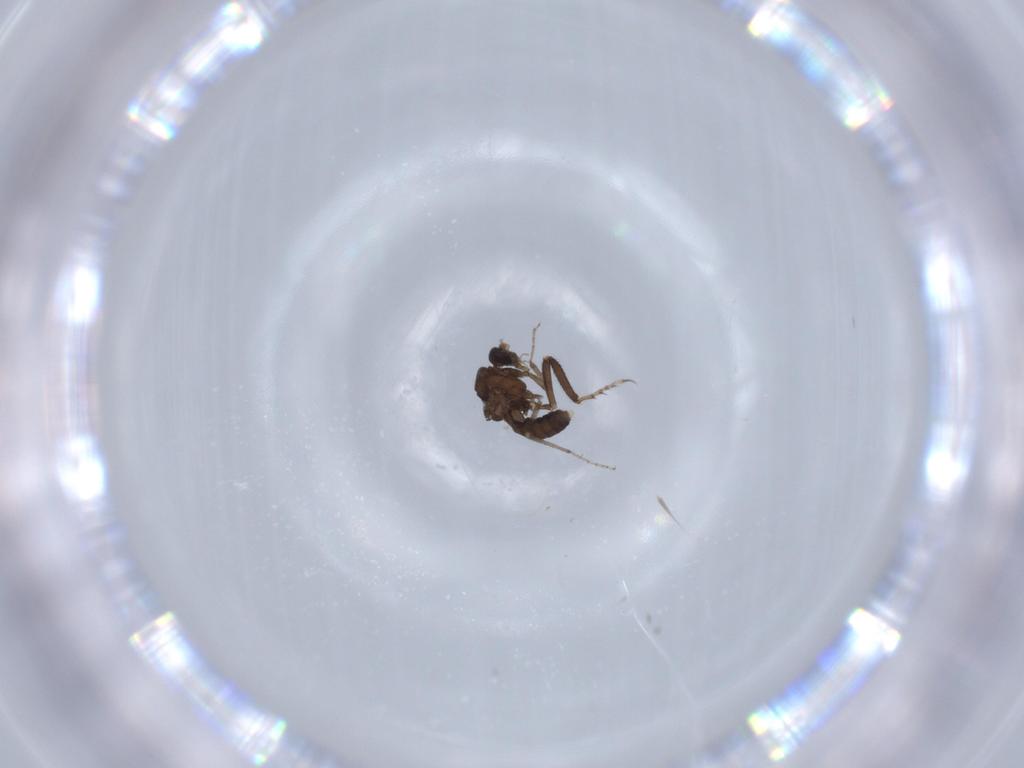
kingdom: Animalia
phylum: Arthropoda
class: Insecta
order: Diptera
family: Ceratopogonidae
